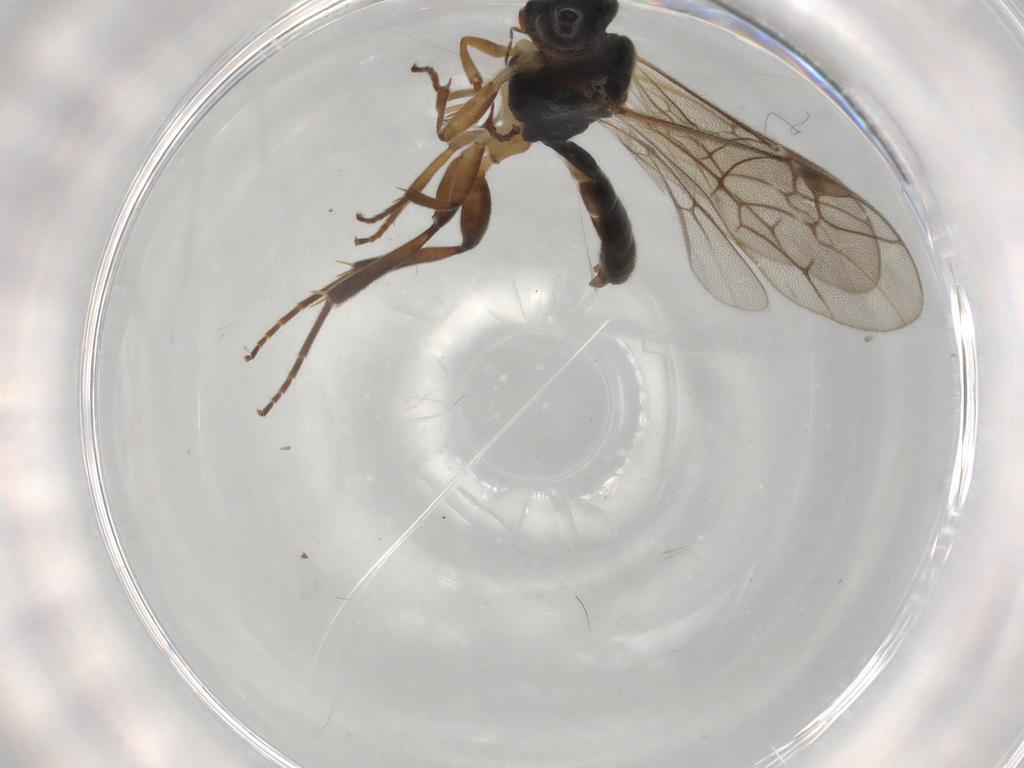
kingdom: Animalia
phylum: Arthropoda
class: Insecta
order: Hymenoptera
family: Ichneumonidae
